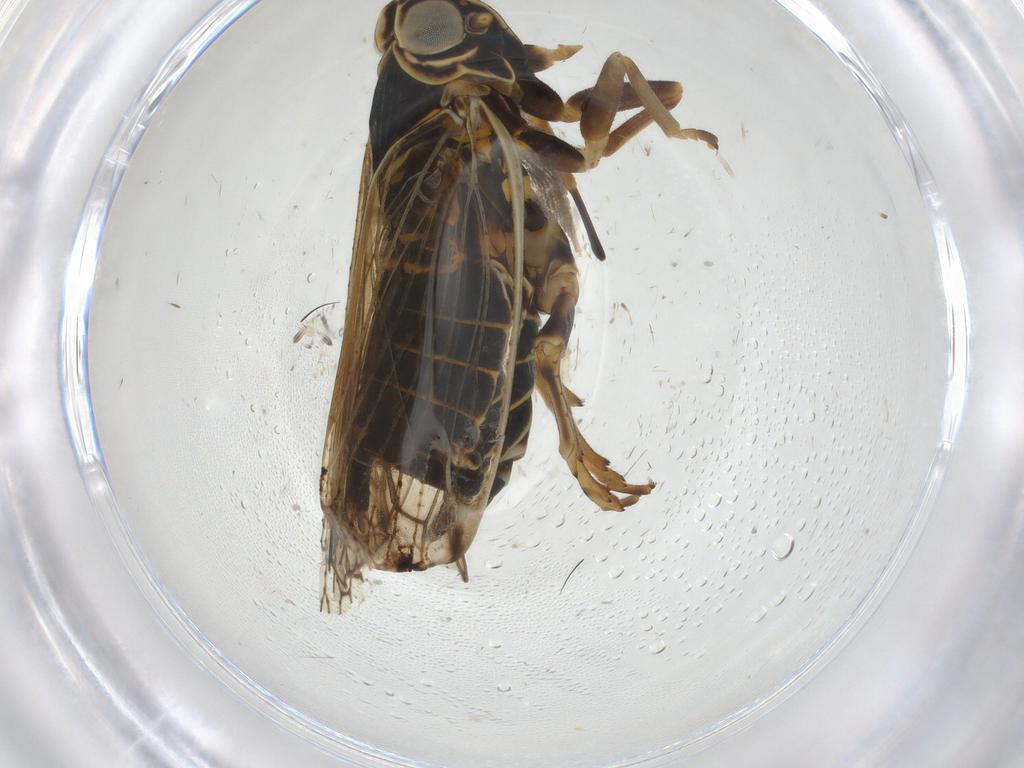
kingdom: Animalia
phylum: Arthropoda
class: Insecta
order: Hemiptera
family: Cixiidae
